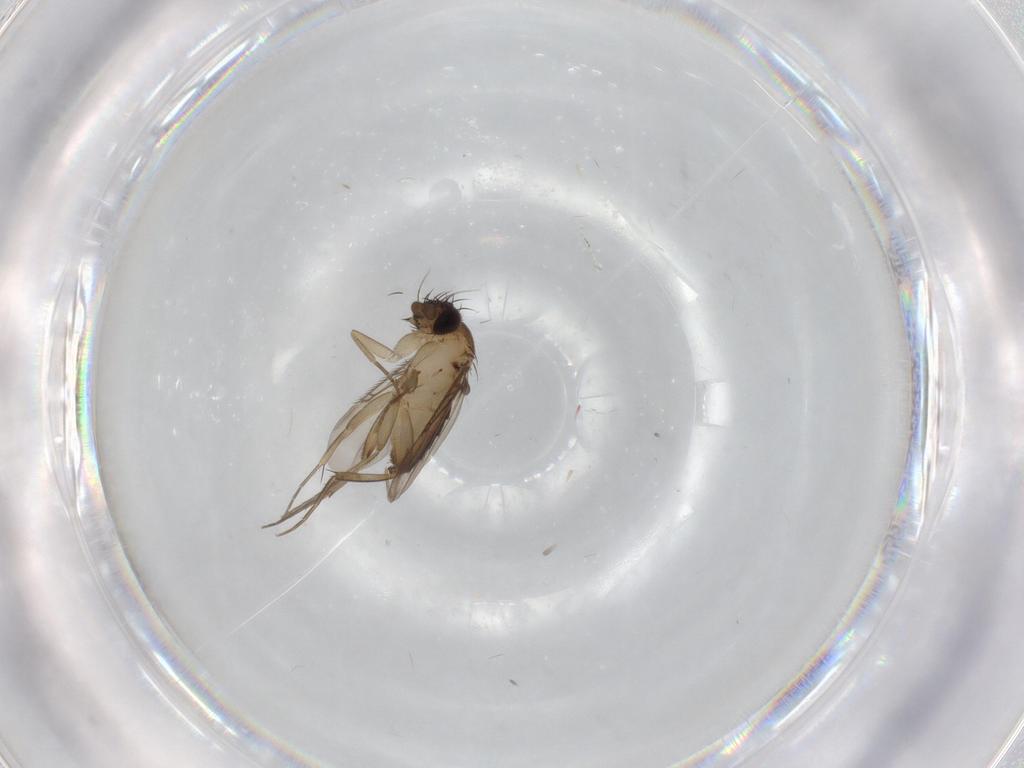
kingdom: Animalia
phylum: Arthropoda
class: Insecta
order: Diptera
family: Phoridae
